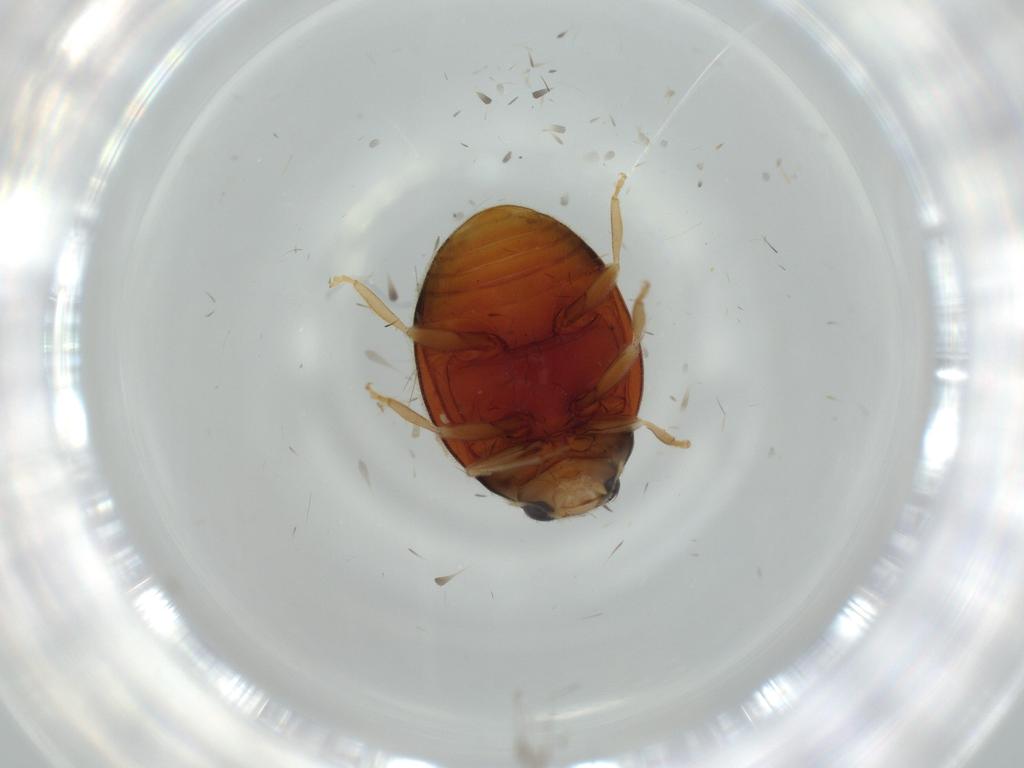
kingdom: Animalia
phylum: Arthropoda
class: Insecta
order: Coleoptera
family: Coccinellidae
